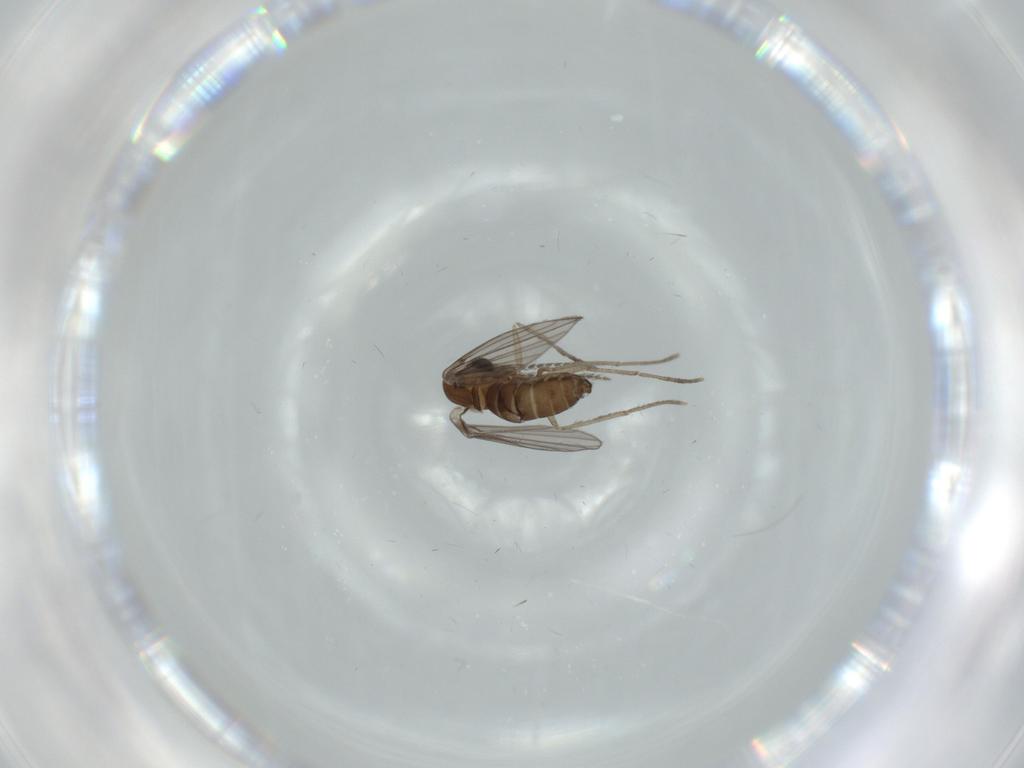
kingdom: Animalia
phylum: Arthropoda
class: Insecta
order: Diptera
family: Psychodidae
